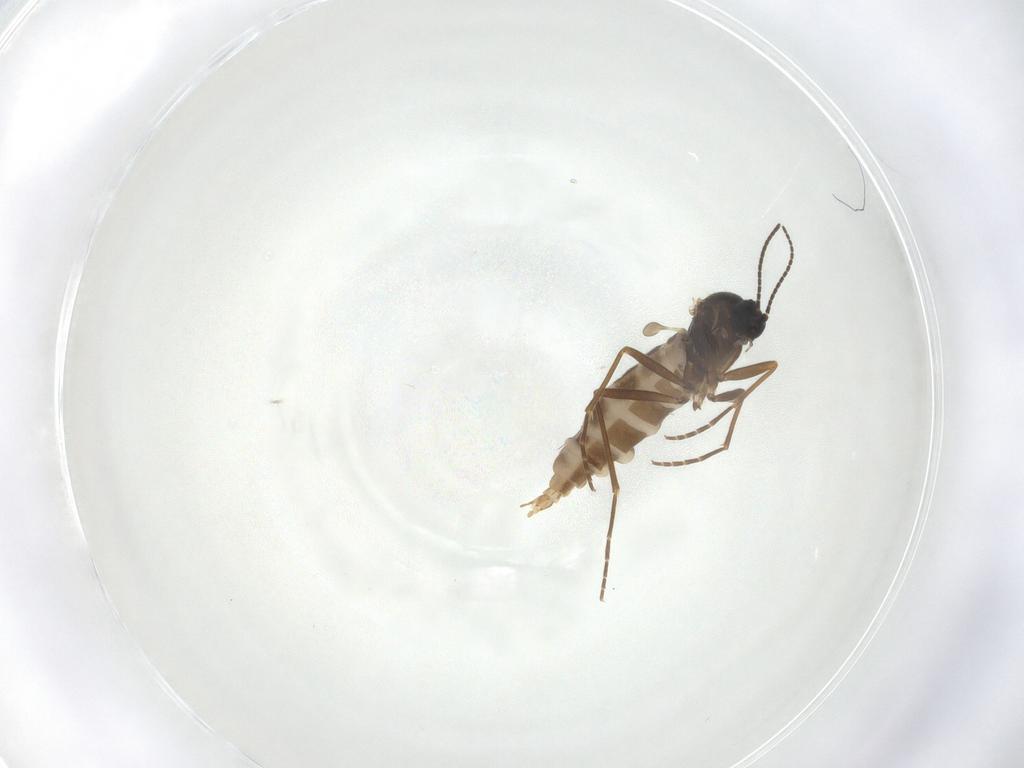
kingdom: Animalia
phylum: Arthropoda
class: Insecta
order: Diptera
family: Sciaridae
